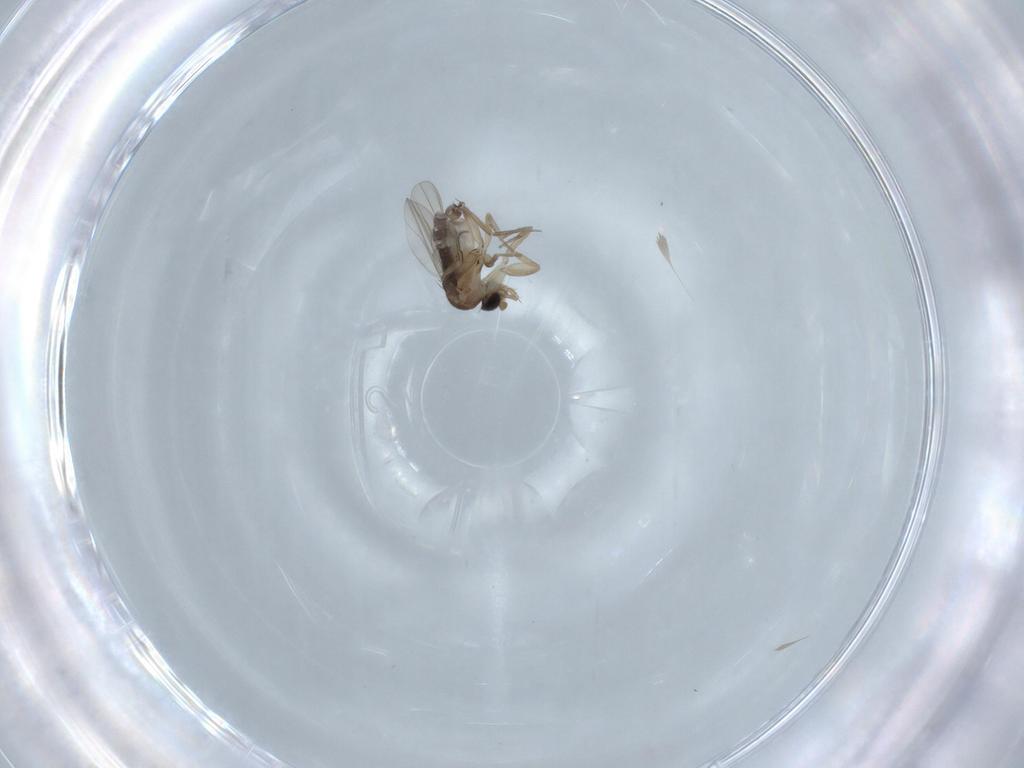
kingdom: Animalia
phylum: Arthropoda
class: Insecta
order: Diptera
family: Phoridae
